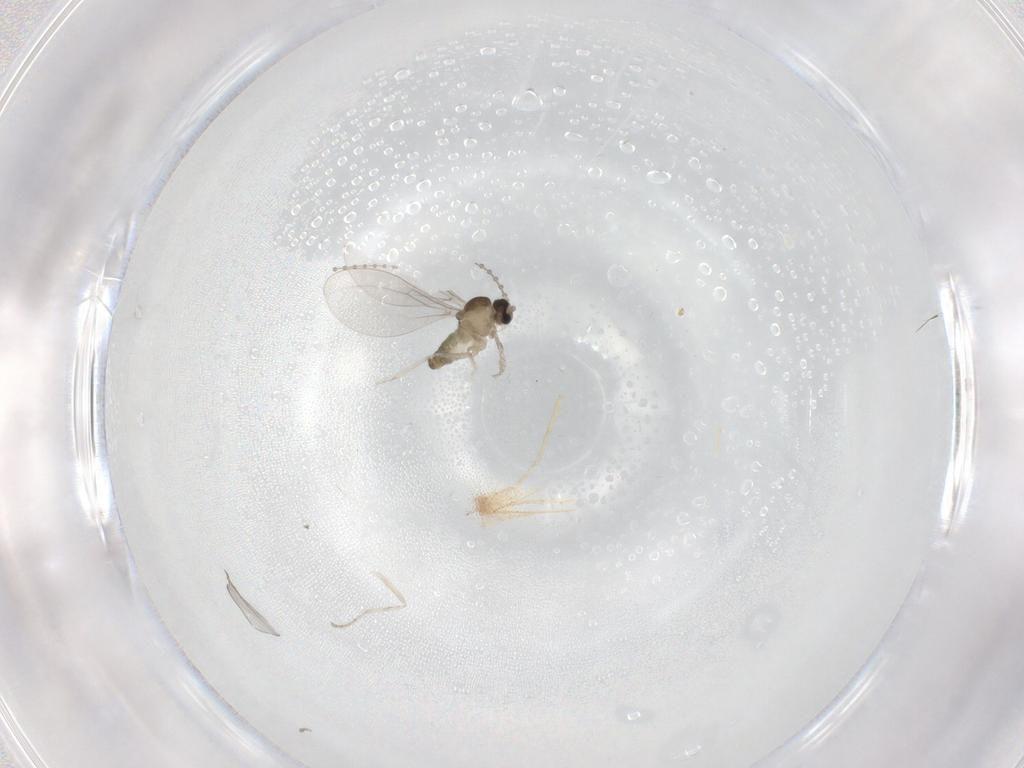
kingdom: Animalia
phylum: Arthropoda
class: Insecta
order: Diptera
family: Cecidomyiidae
